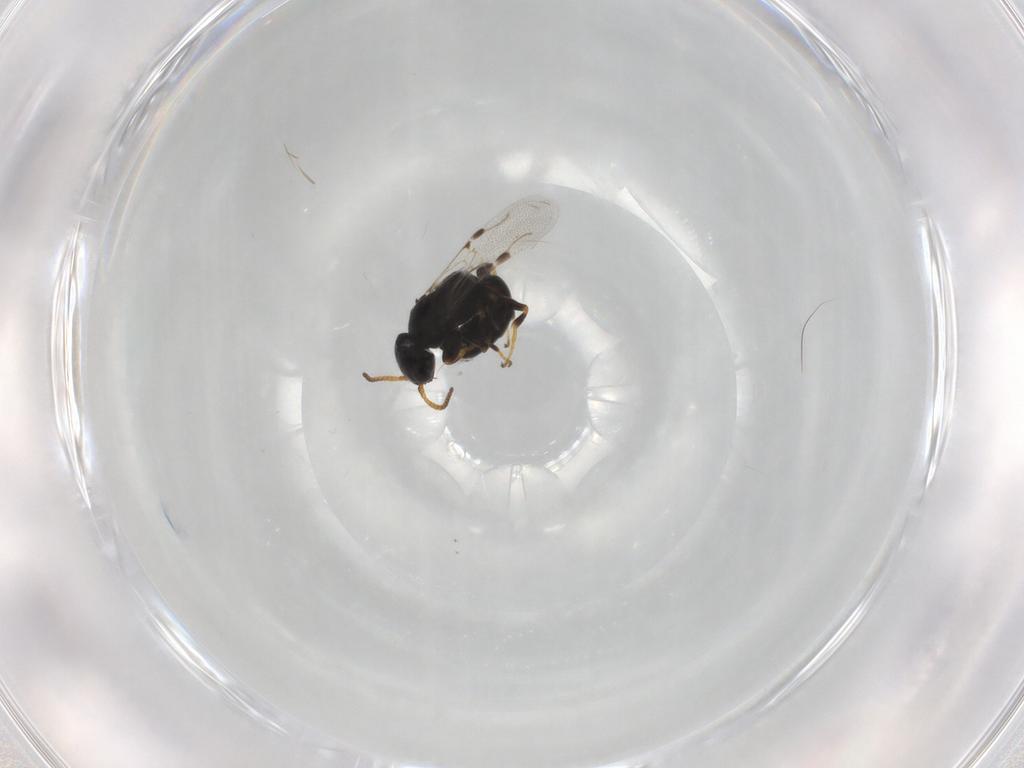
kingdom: Animalia
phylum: Arthropoda
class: Insecta
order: Hymenoptera
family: Bethylidae
